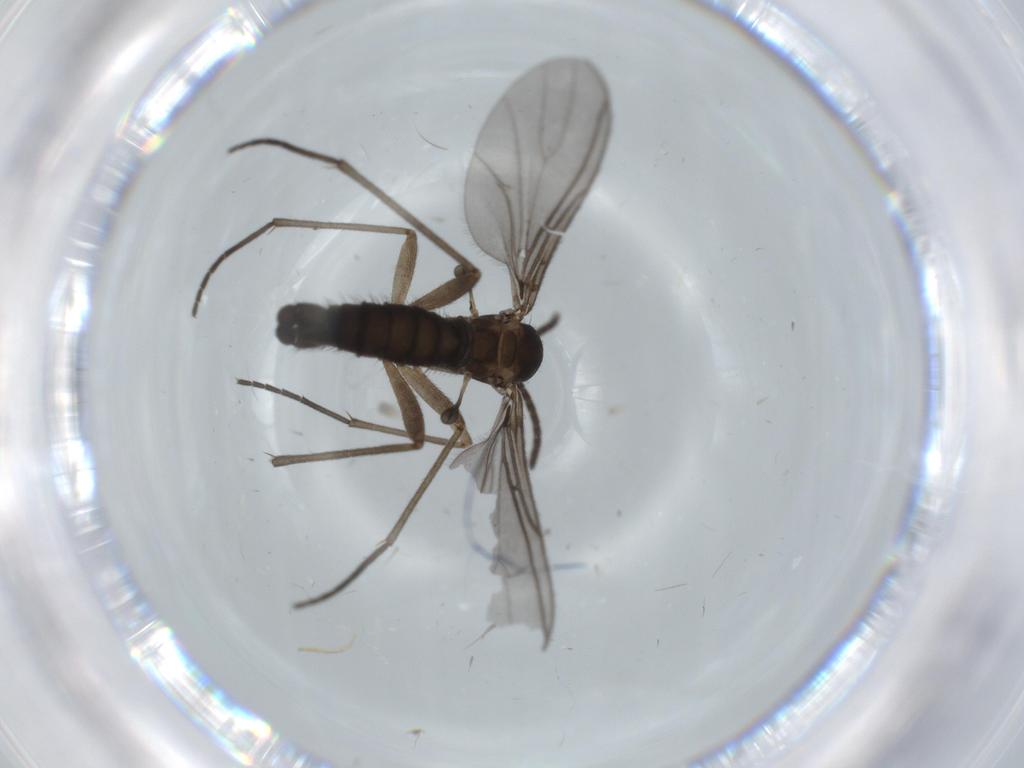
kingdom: Animalia
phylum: Arthropoda
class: Insecta
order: Diptera
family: Sciaridae
